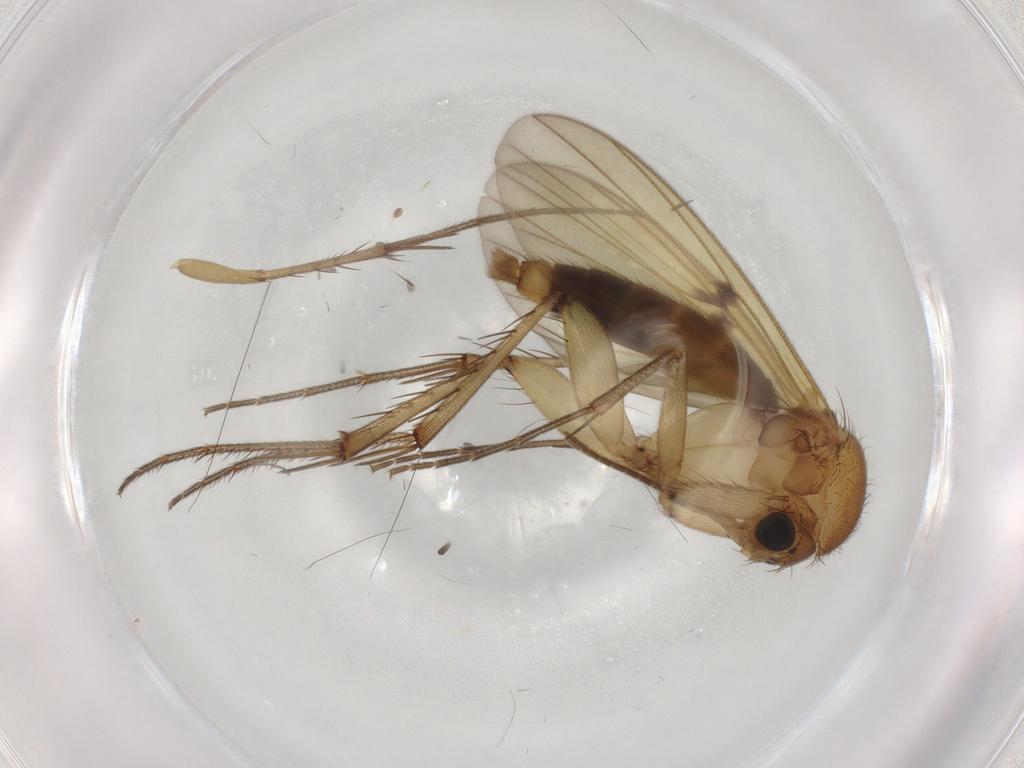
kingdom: Animalia
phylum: Arthropoda
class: Insecta
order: Diptera
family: Mycetophilidae
